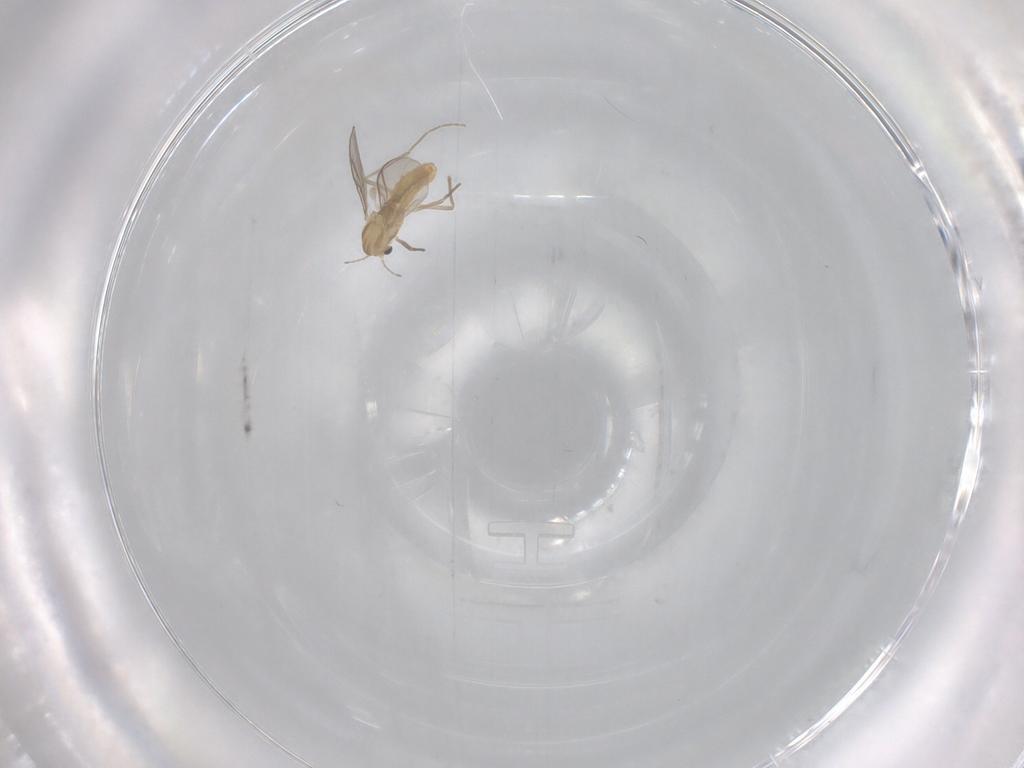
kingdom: Animalia
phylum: Arthropoda
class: Insecta
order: Diptera
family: Chironomidae
